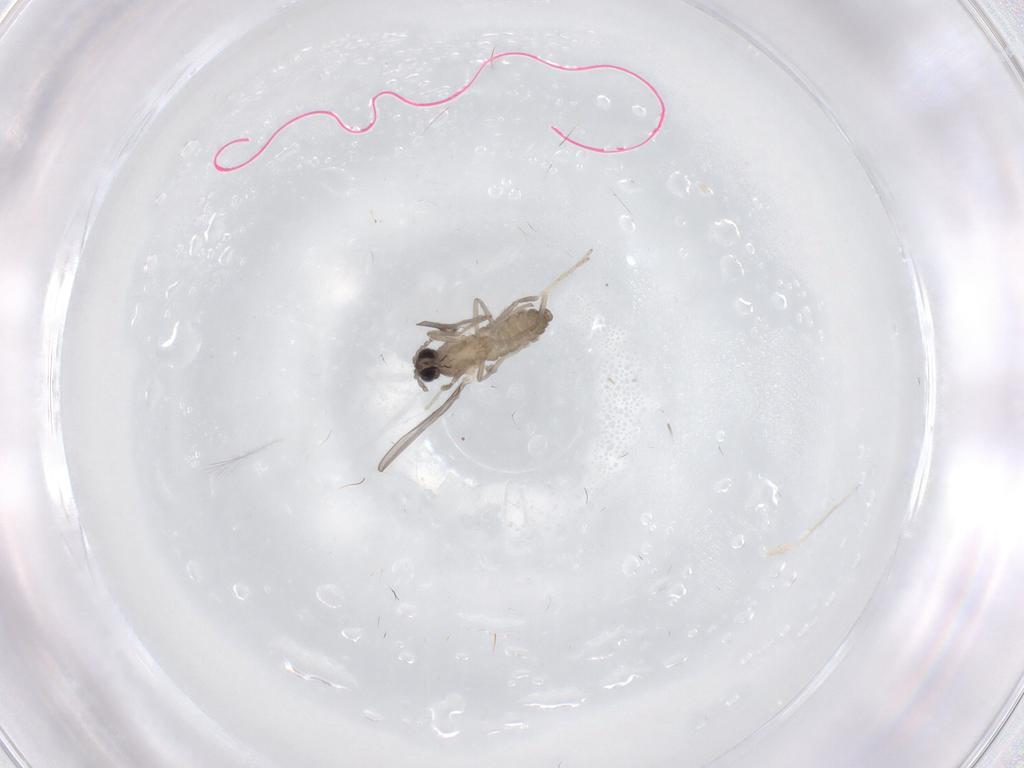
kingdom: Animalia
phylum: Arthropoda
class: Insecta
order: Diptera
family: Cecidomyiidae
